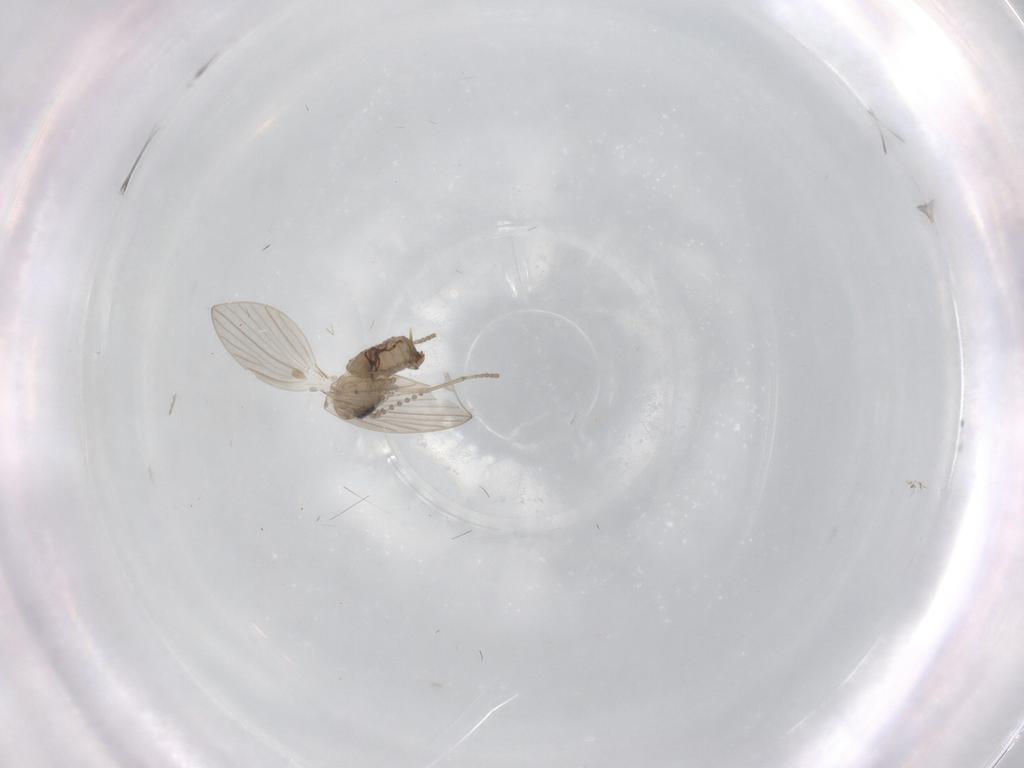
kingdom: Animalia
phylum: Arthropoda
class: Insecta
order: Diptera
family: Psychodidae
